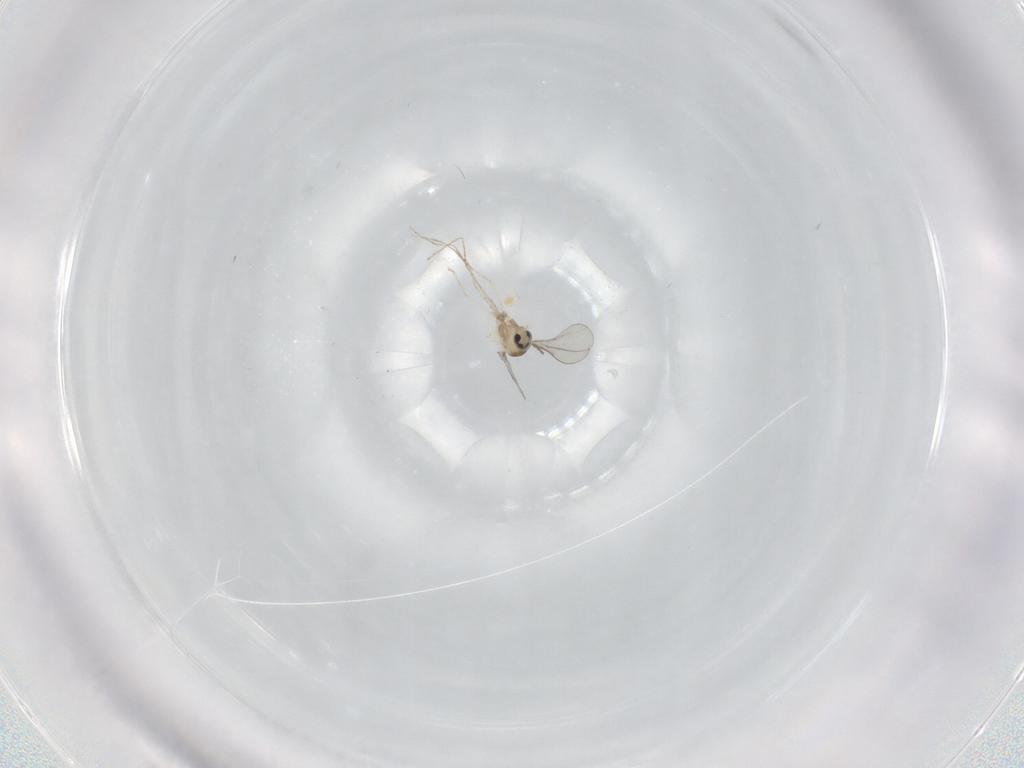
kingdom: Animalia
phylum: Arthropoda
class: Insecta
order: Diptera
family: Cecidomyiidae
